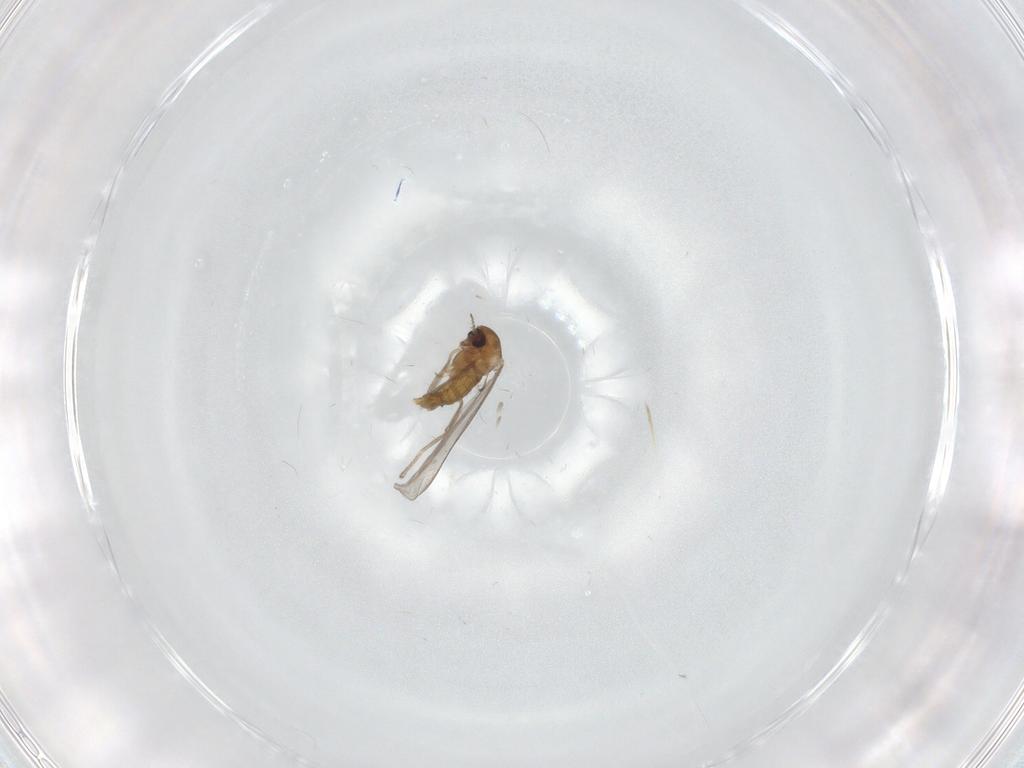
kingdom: Animalia
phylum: Arthropoda
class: Insecta
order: Diptera
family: Chironomidae
